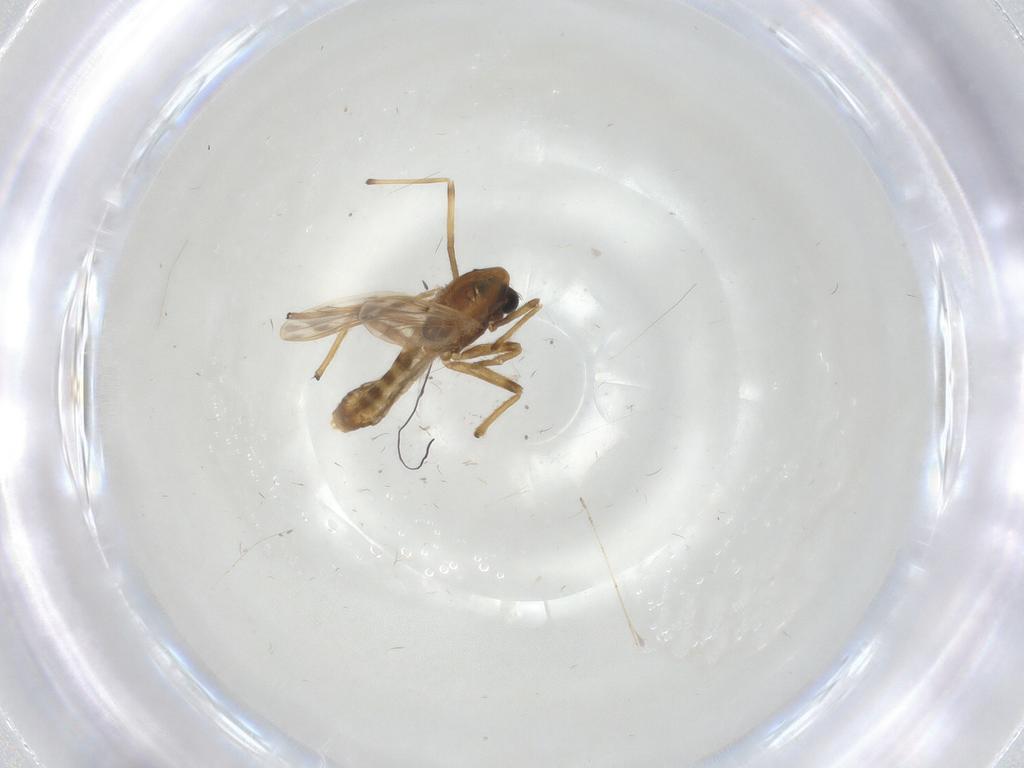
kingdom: Animalia
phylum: Arthropoda
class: Insecta
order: Diptera
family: Chironomidae
